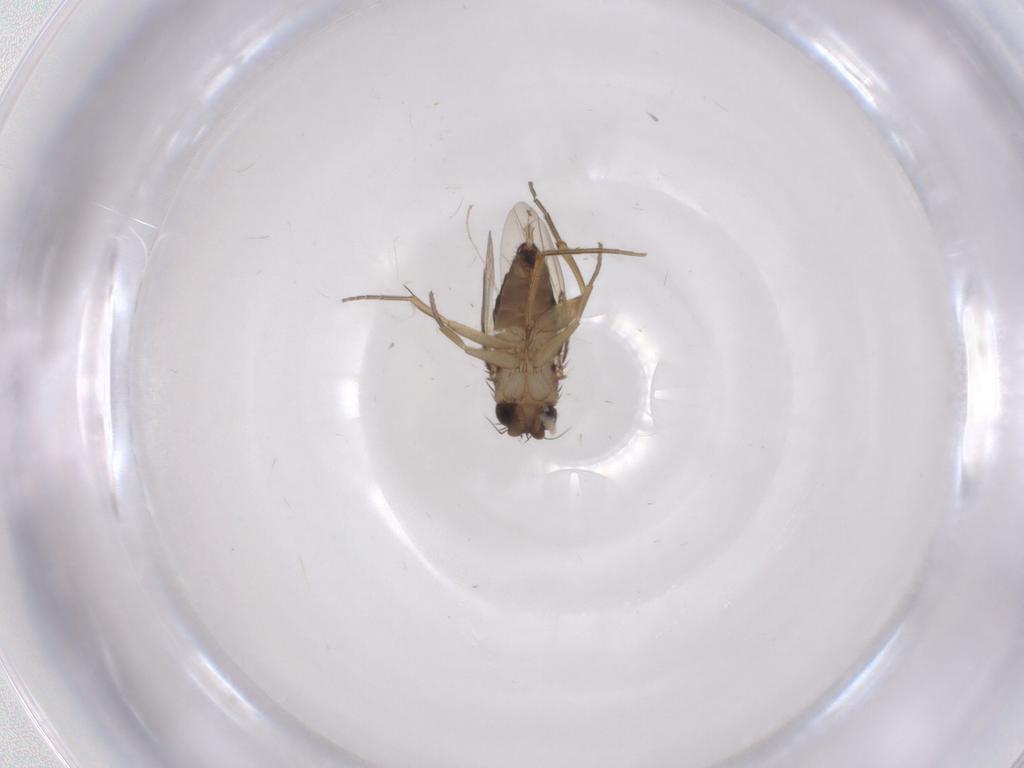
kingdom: Animalia
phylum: Arthropoda
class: Insecta
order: Diptera
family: Phoridae
